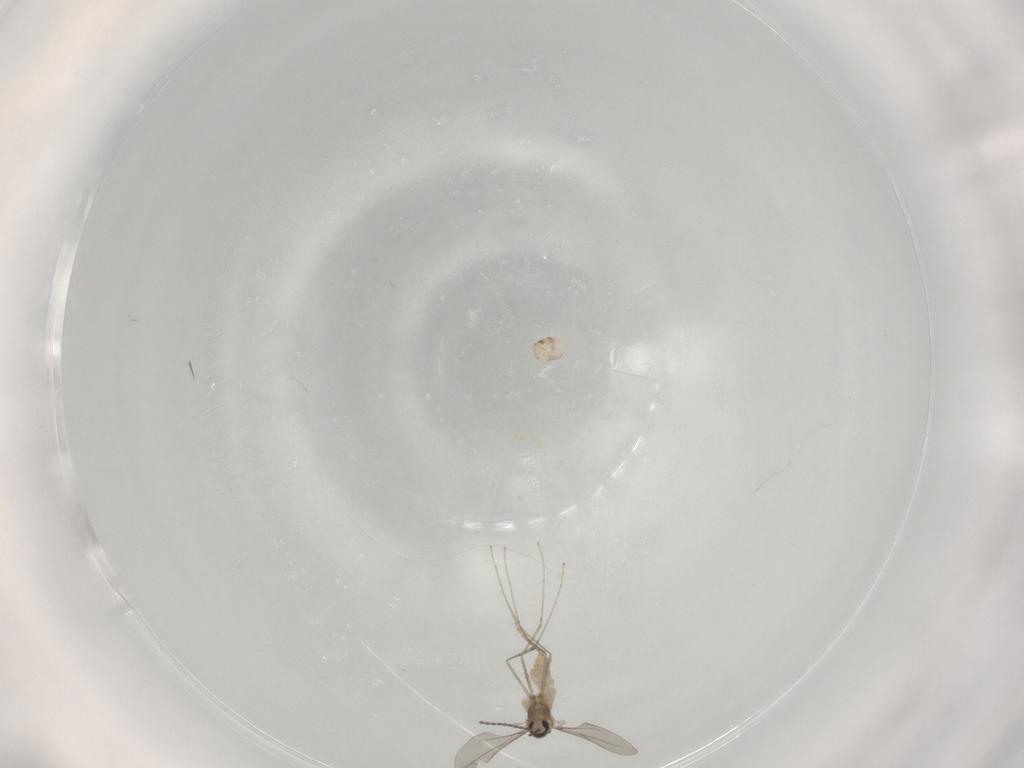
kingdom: Animalia
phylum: Arthropoda
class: Insecta
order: Diptera
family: Cecidomyiidae
